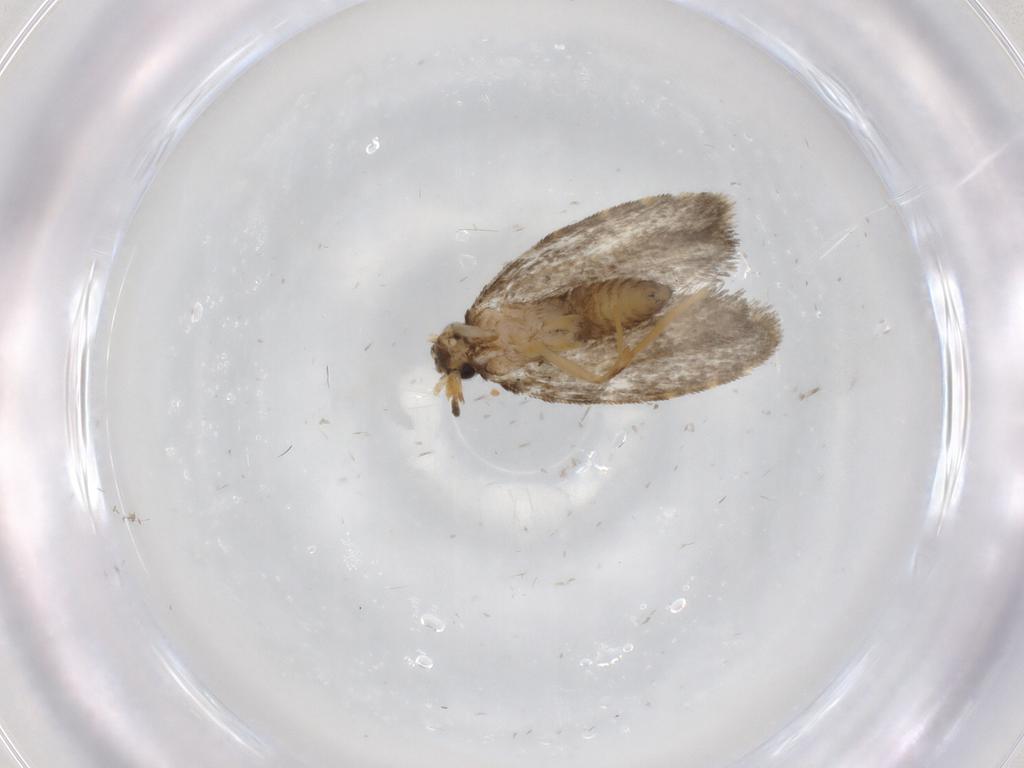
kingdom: Animalia
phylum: Arthropoda
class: Insecta
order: Lepidoptera
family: Psychidae
